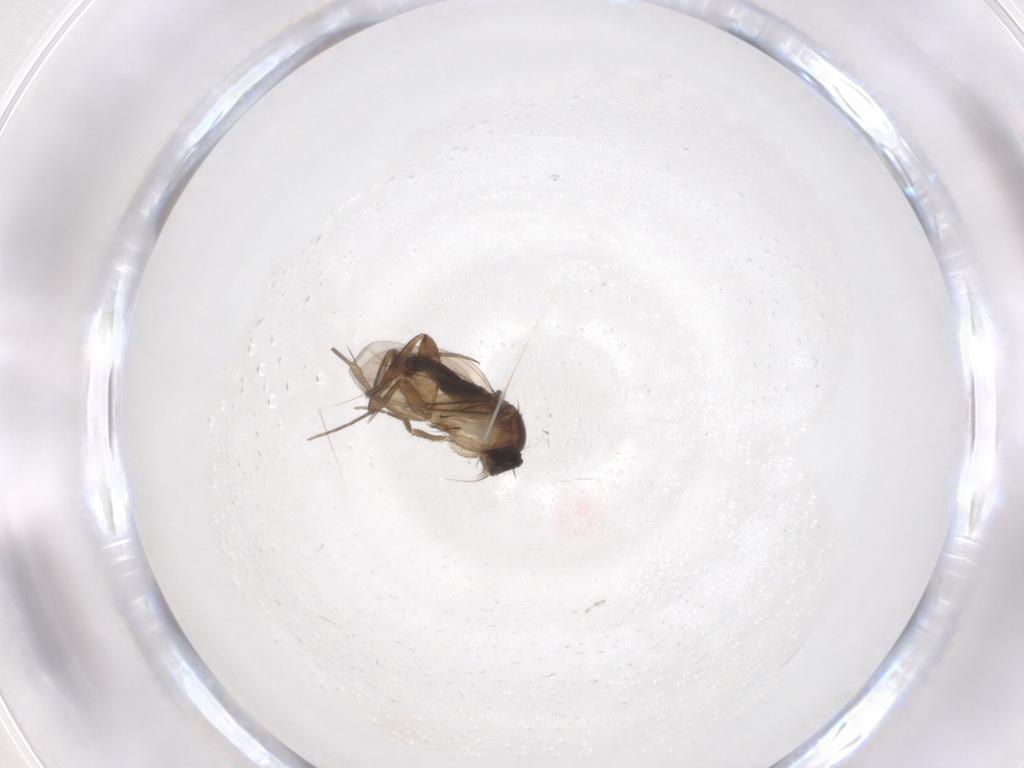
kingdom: Animalia
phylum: Arthropoda
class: Insecta
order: Diptera
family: Phoridae
